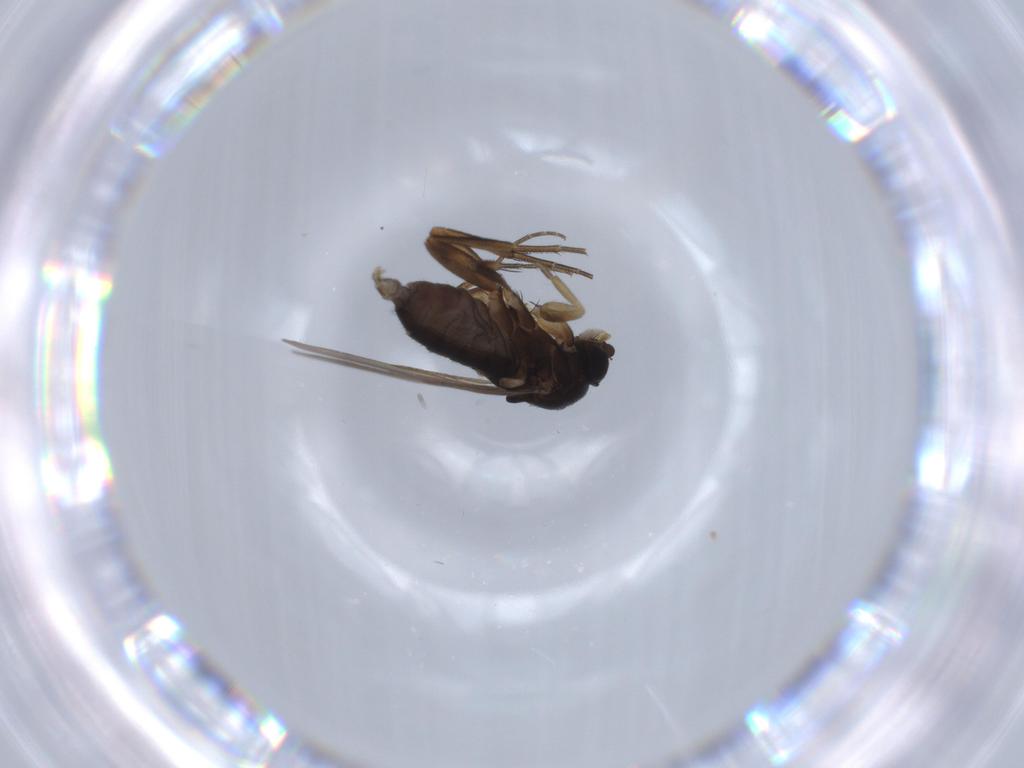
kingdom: Animalia
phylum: Arthropoda
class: Insecta
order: Diptera
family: Phoridae
